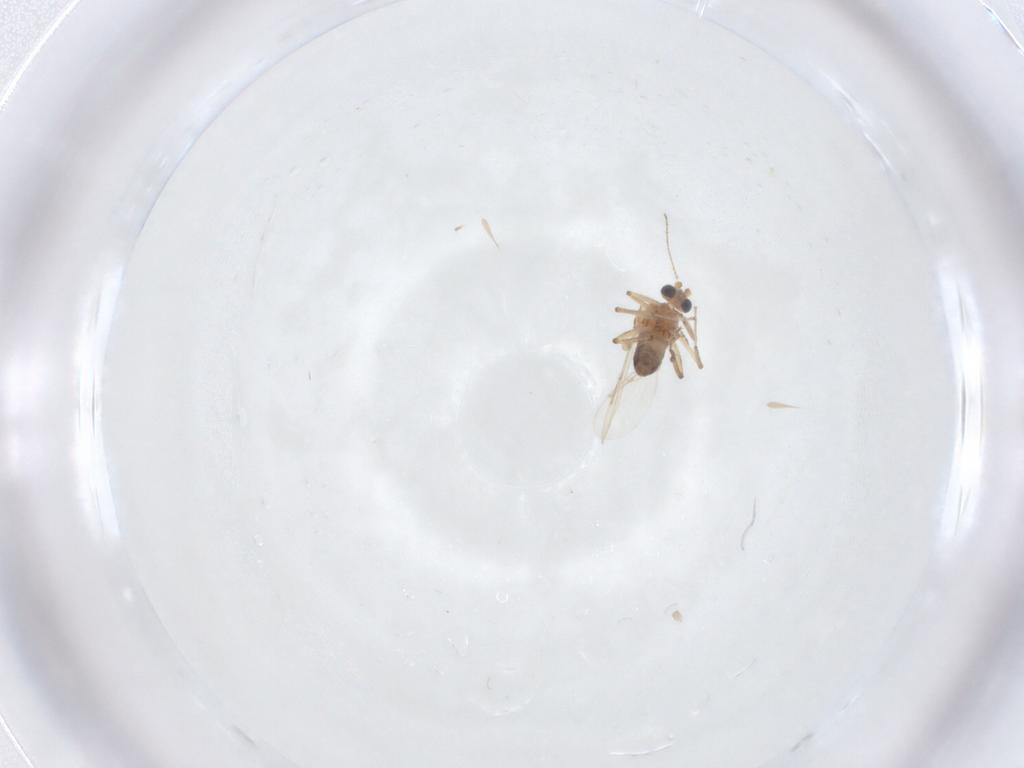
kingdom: Animalia
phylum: Arthropoda
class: Insecta
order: Diptera
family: Ceratopogonidae
